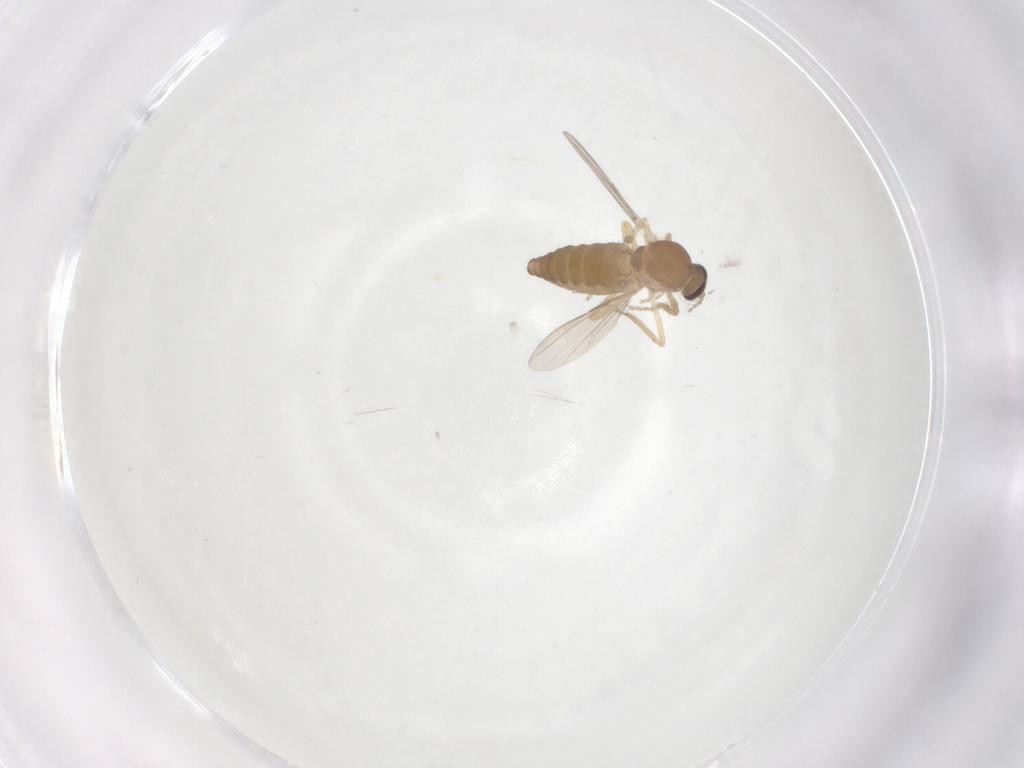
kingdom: Animalia
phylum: Arthropoda
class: Insecta
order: Diptera
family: Ceratopogonidae
